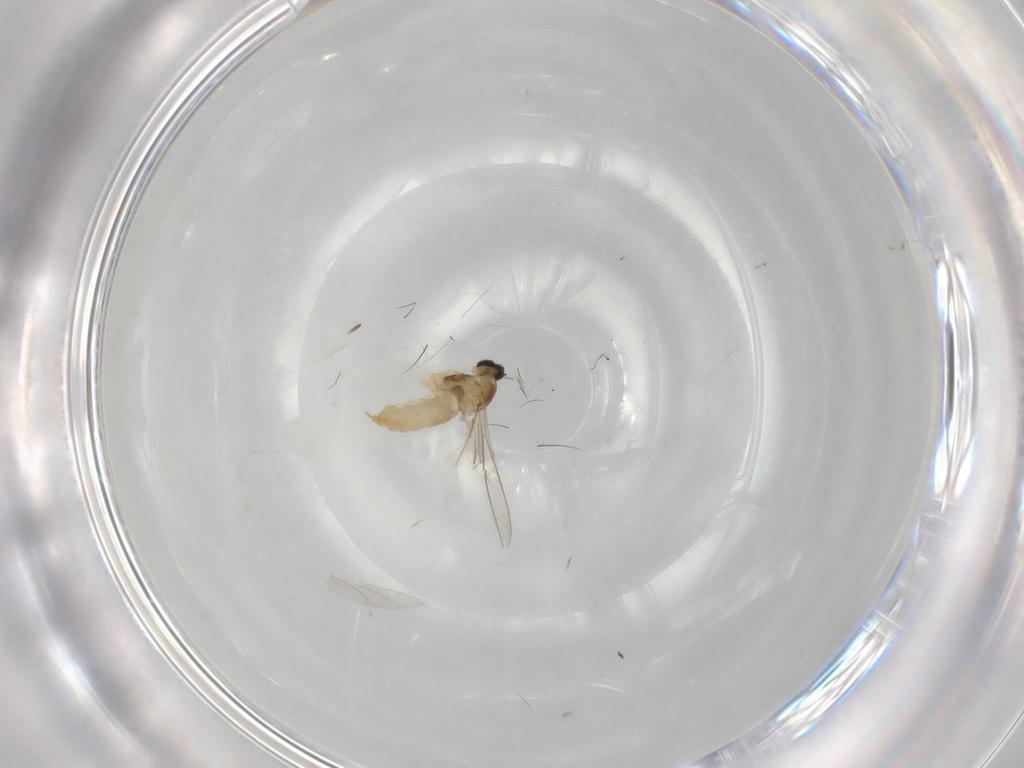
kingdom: Animalia
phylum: Arthropoda
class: Insecta
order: Diptera
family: Cecidomyiidae
